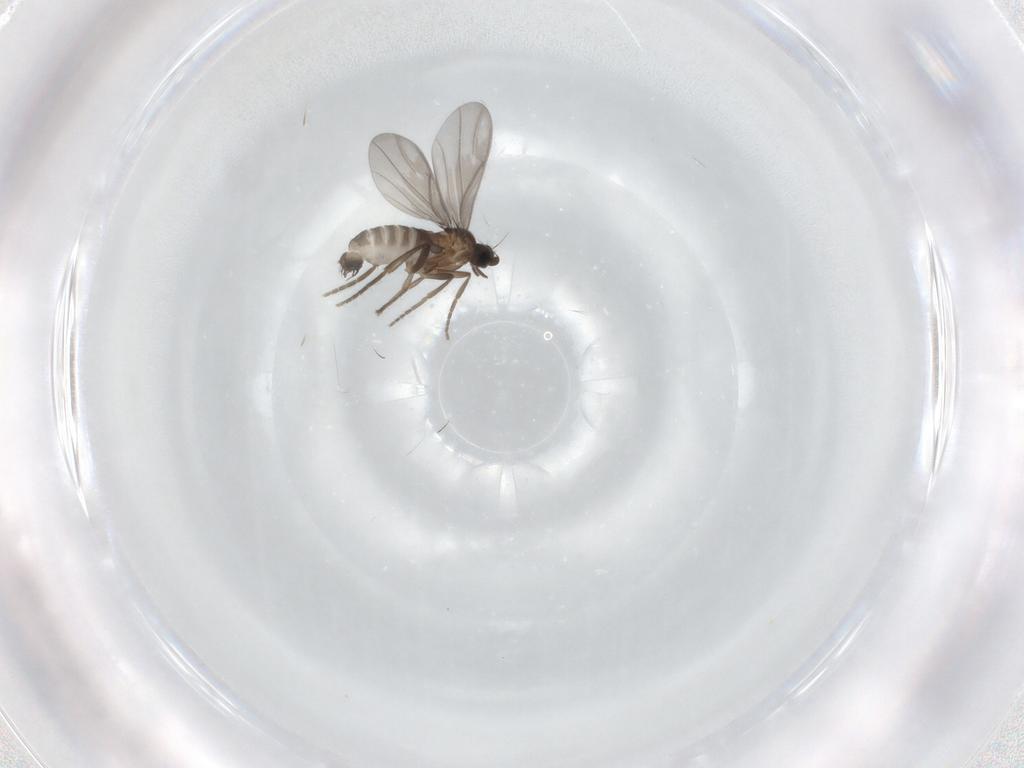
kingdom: Animalia
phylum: Arthropoda
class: Insecta
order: Diptera
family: Phoridae
